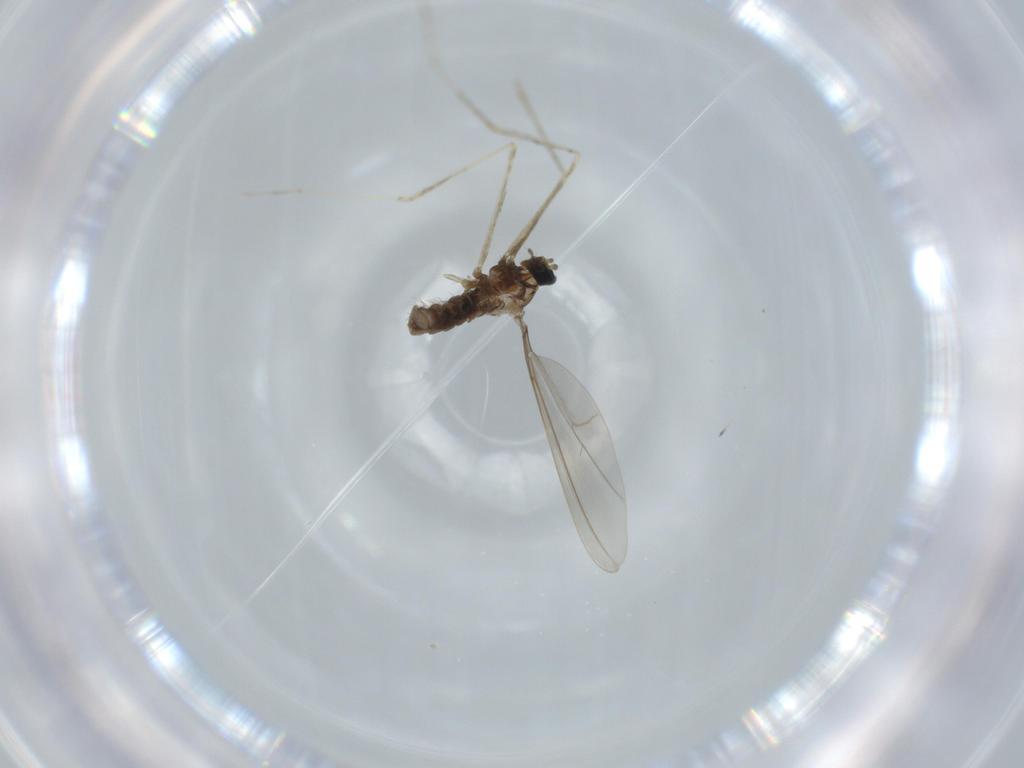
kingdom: Animalia
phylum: Arthropoda
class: Insecta
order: Diptera
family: Cecidomyiidae
